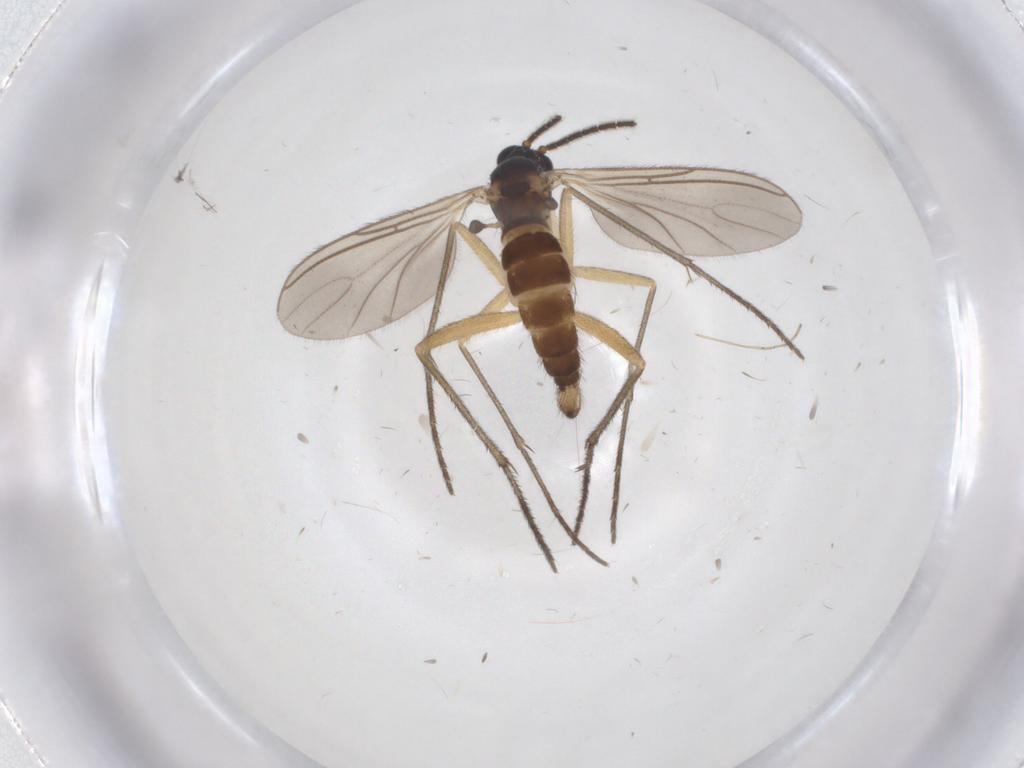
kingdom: Animalia
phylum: Arthropoda
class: Insecta
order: Diptera
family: Sciaridae
